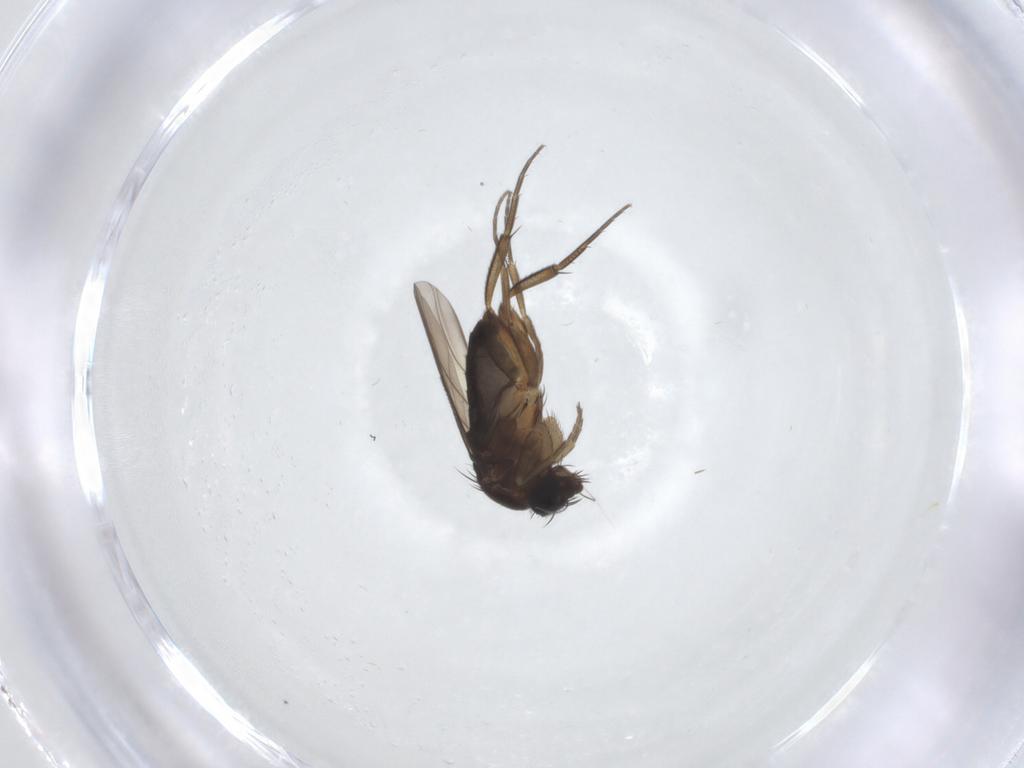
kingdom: Animalia
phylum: Arthropoda
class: Insecta
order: Diptera
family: Phoridae
